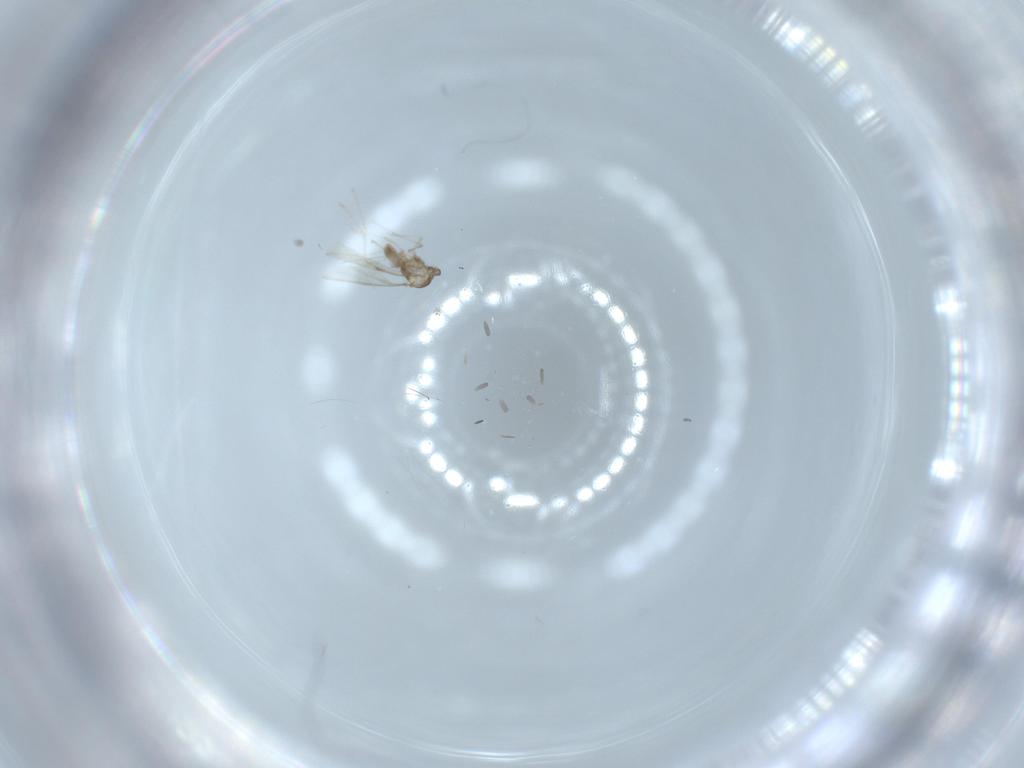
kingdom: Animalia
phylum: Arthropoda
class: Insecta
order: Diptera
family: Cecidomyiidae
